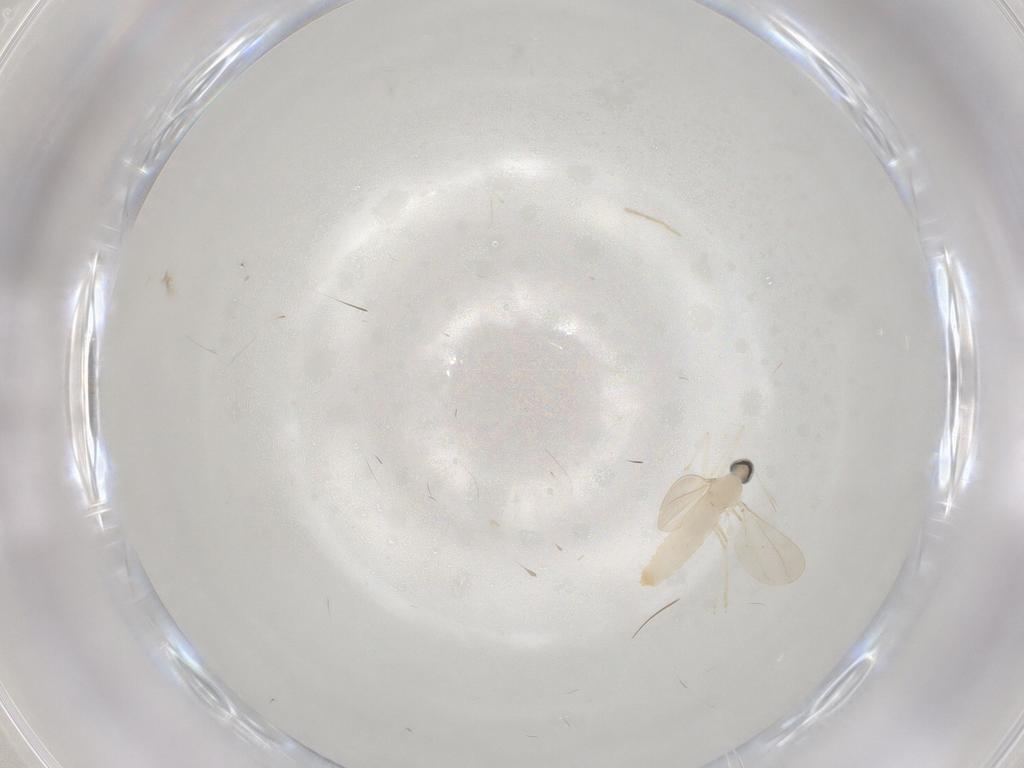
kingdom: Animalia
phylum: Arthropoda
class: Insecta
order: Diptera
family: Cecidomyiidae
